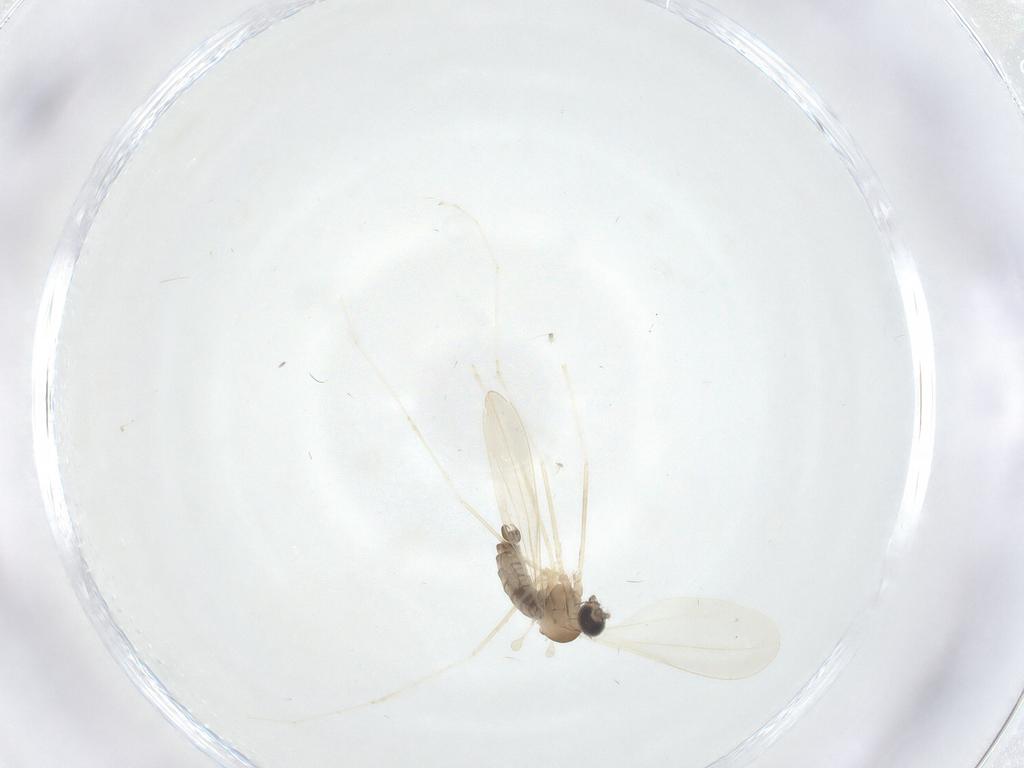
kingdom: Animalia
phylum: Arthropoda
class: Insecta
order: Diptera
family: Cecidomyiidae
